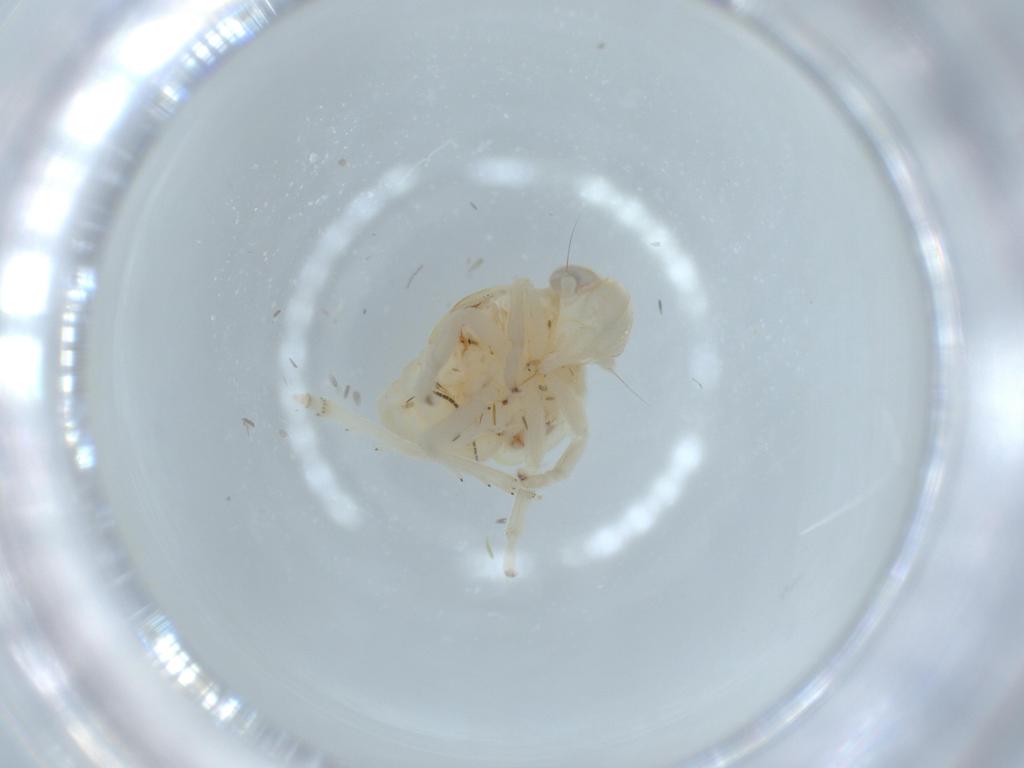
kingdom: Animalia
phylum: Arthropoda
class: Insecta
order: Hemiptera
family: Nogodinidae
